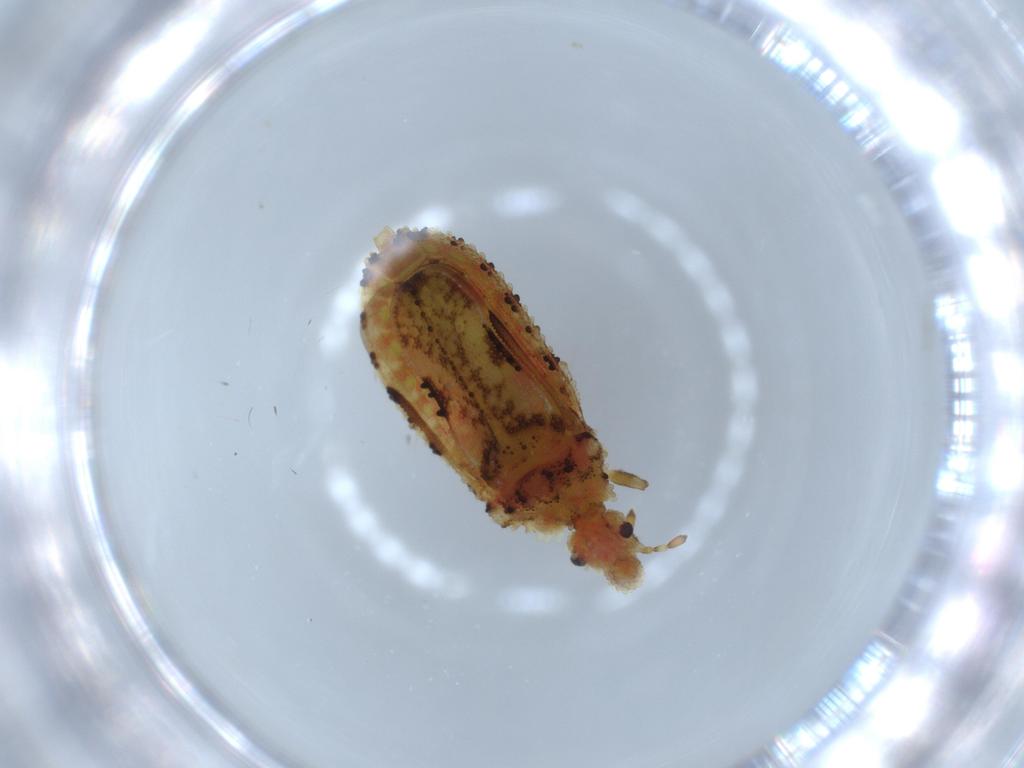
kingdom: Animalia
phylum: Arthropoda
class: Insecta
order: Hemiptera
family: Aradidae
